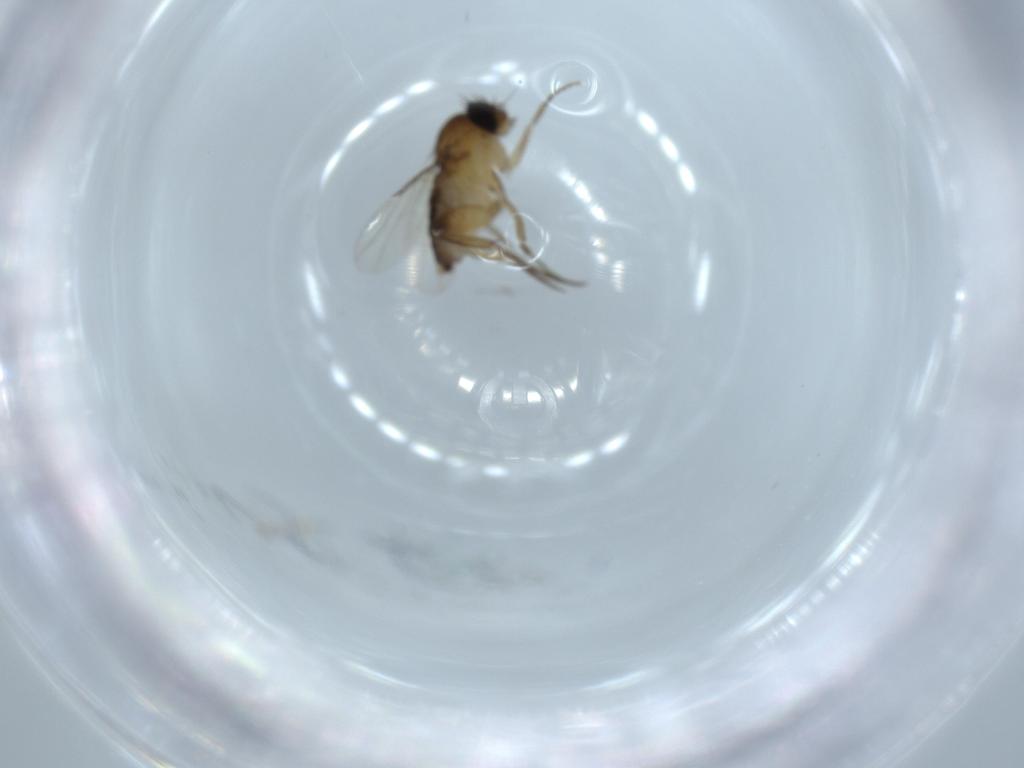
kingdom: Animalia
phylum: Arthropoda
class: Insecta
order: Diptera
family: Phoridae
